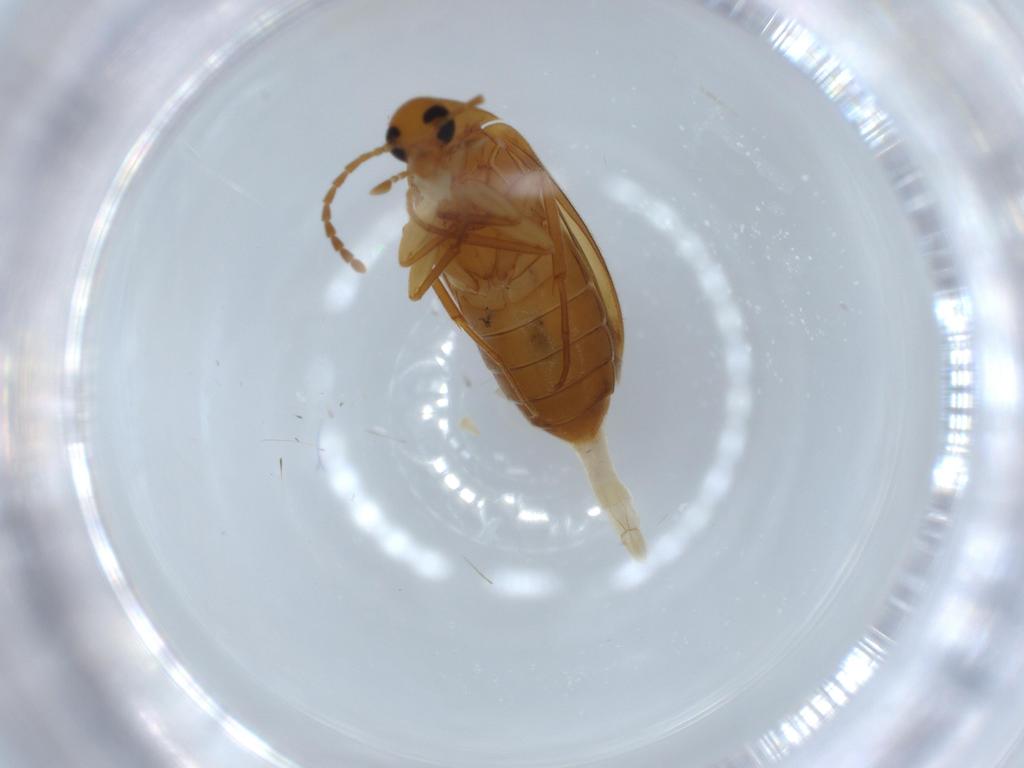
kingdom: Animalia
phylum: Arthropoda
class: Insecta
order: Coleoptera
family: Scraptiidae
